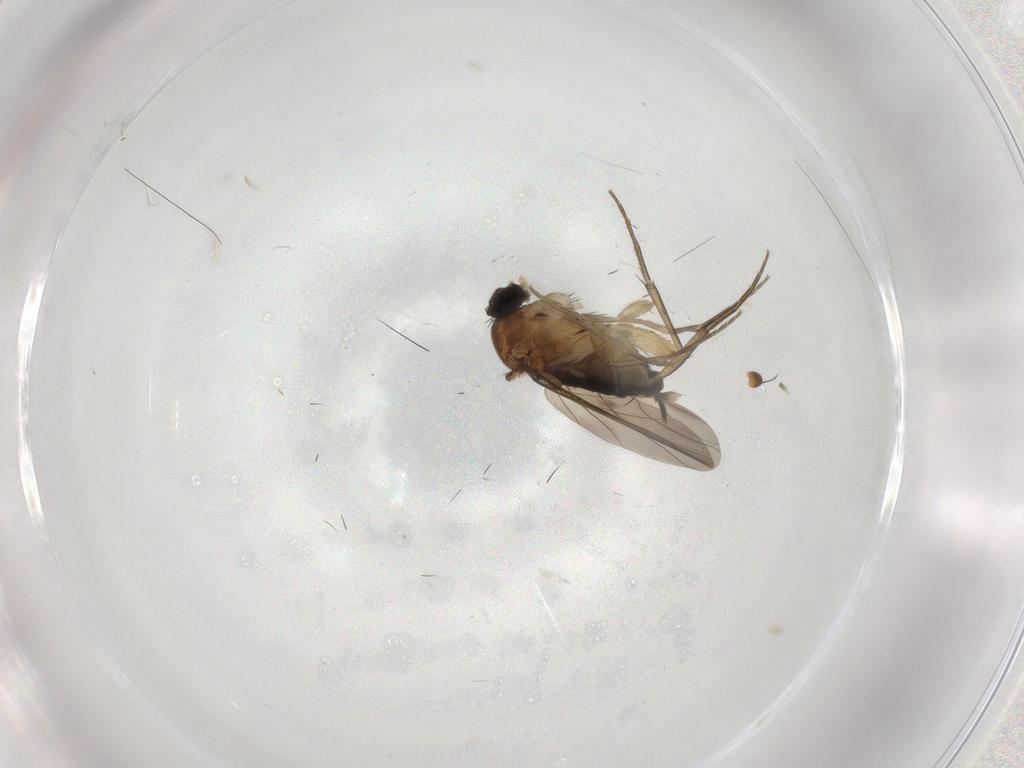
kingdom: Animalia
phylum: Arthropoda
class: Insecta
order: Diptera
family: Phoridae
